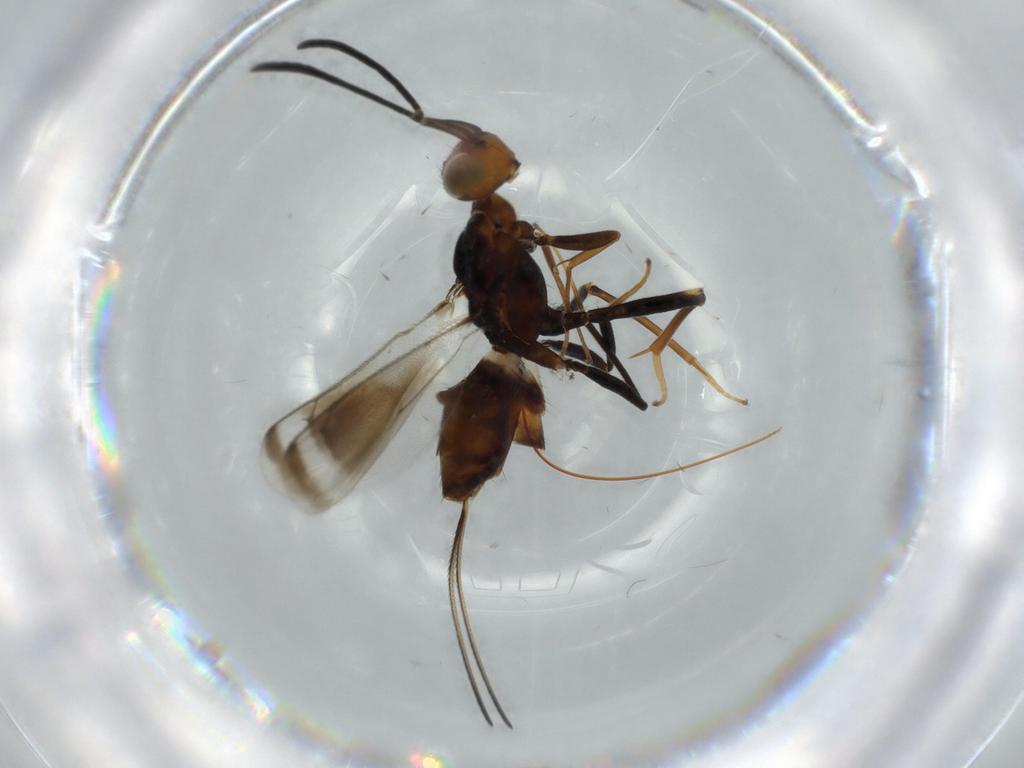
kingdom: Animalia
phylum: Arthropoda
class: Insecta
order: Hymenoptera
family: Eupelmidae
